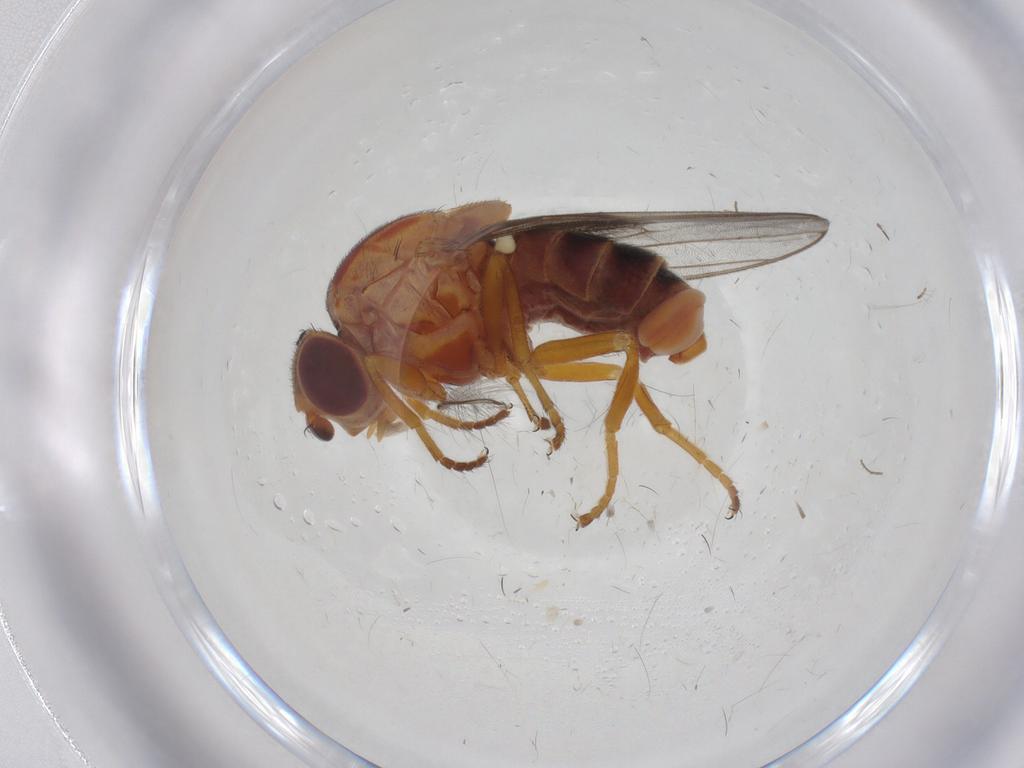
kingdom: Animalia
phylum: Arthropoda
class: Insecta
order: Diptera
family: Chloropidae
